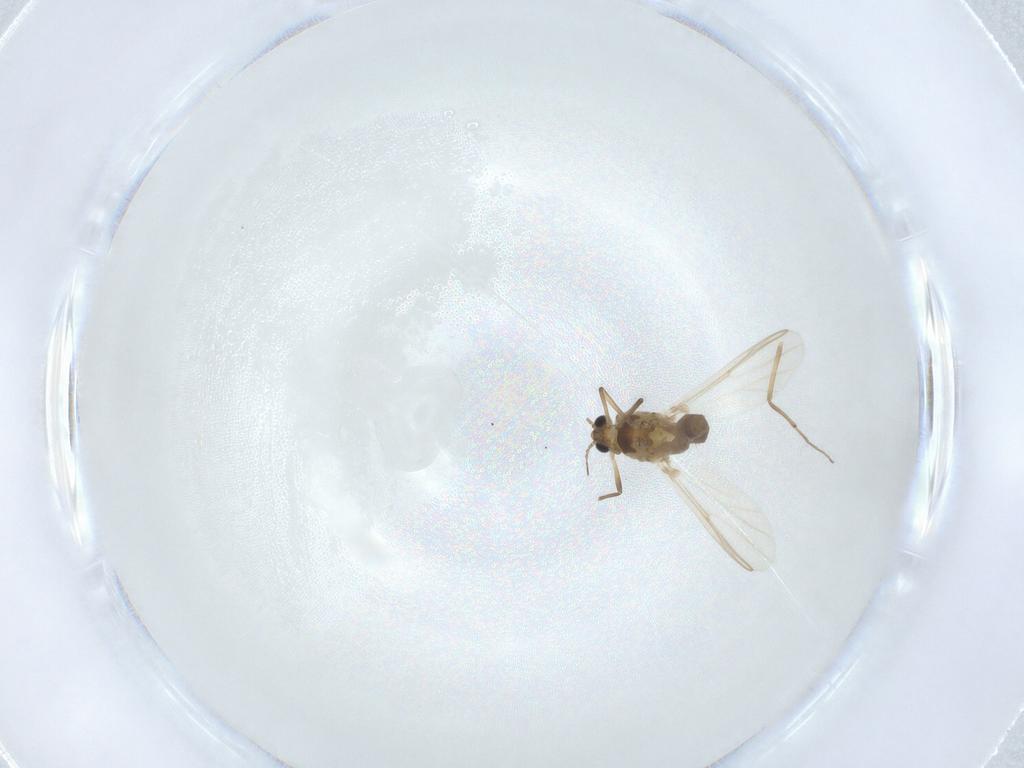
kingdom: Animalia
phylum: Arthropoda
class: Insecta
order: Diptera
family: Chironomidae
